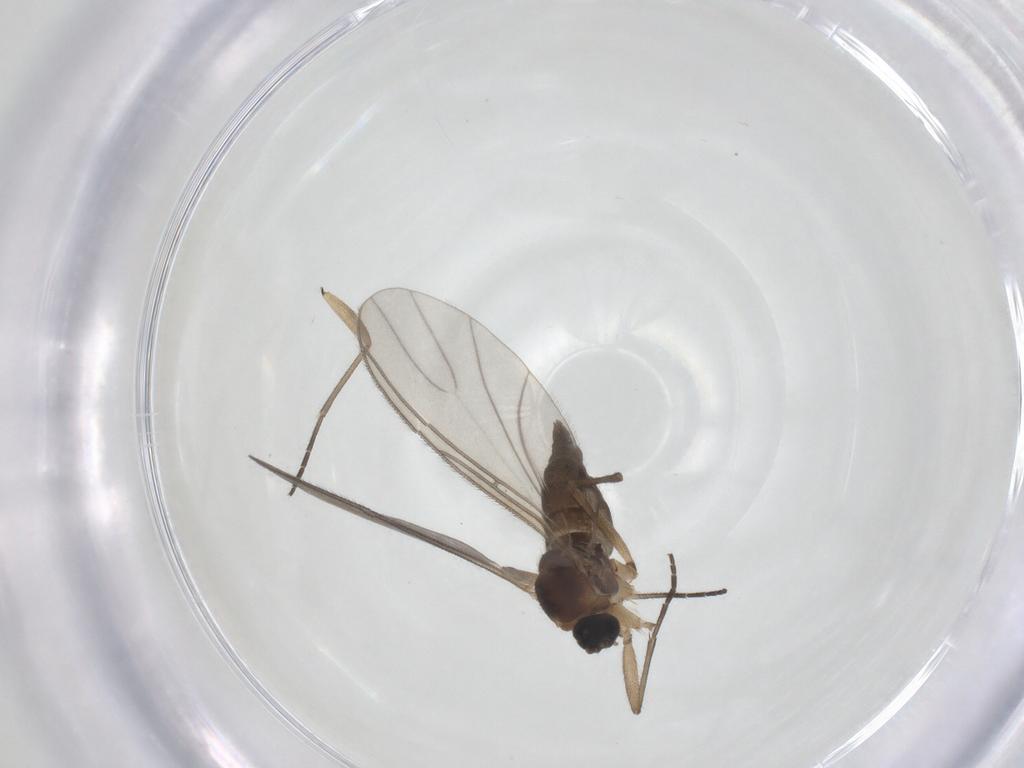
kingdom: Animalia
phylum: Arthropoda
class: Insecta
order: Diptera
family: Sciaridae
